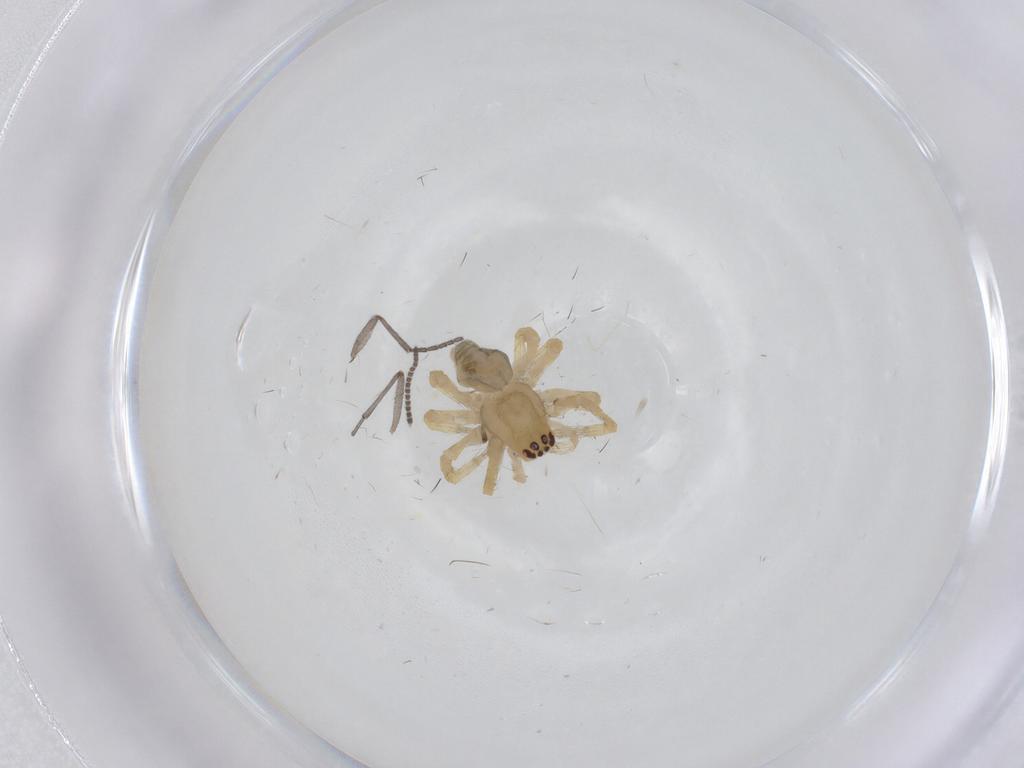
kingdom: Animalia
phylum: Arthropoda
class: Arachnida
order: Araneae
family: Desidae
